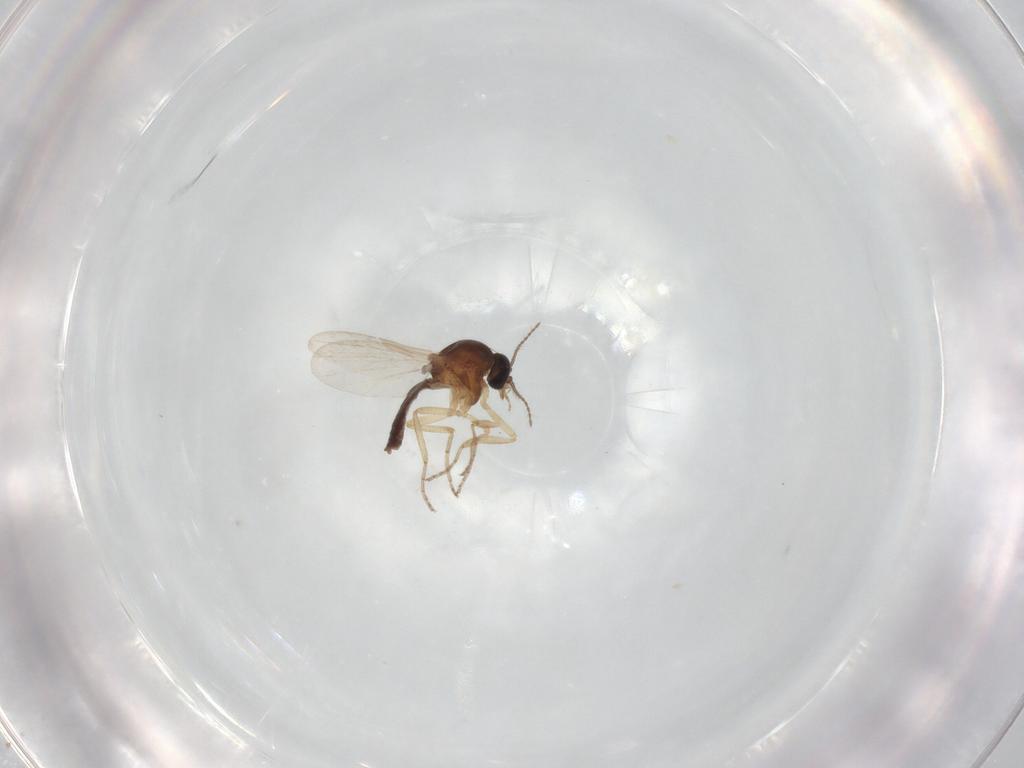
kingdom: Animalia
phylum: Arthropoda
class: Insecta
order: Diptera
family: Ceratopogonidae
